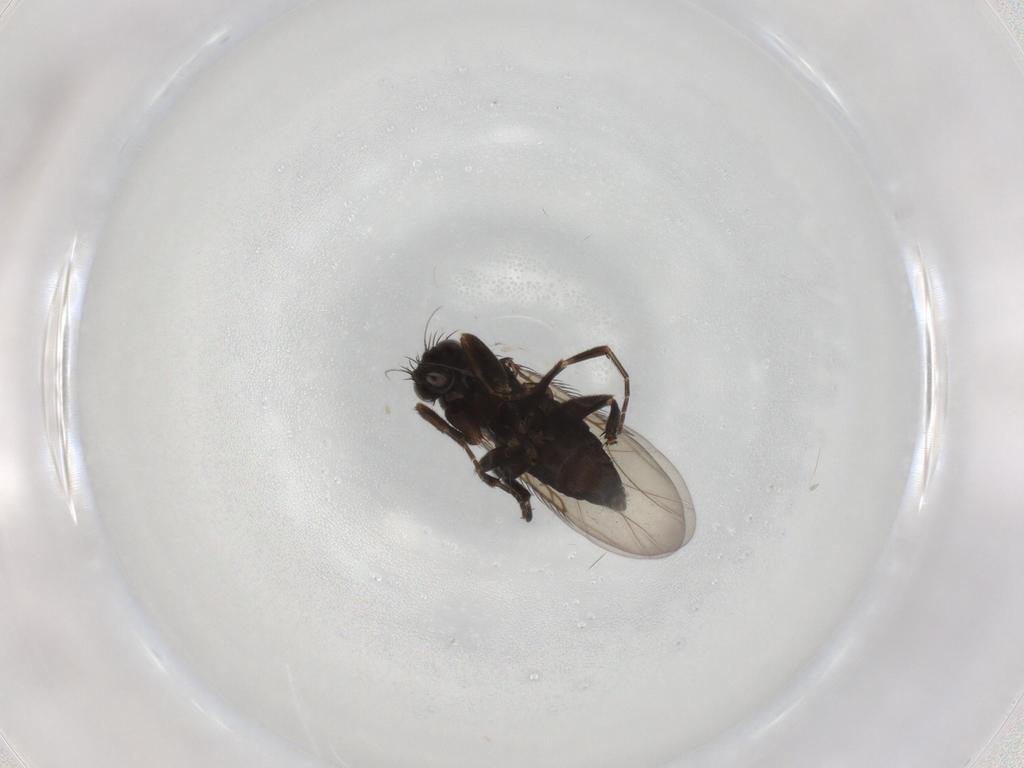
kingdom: Animalia
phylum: Arthropoda
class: Insecta
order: Diptera
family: Phoridae
